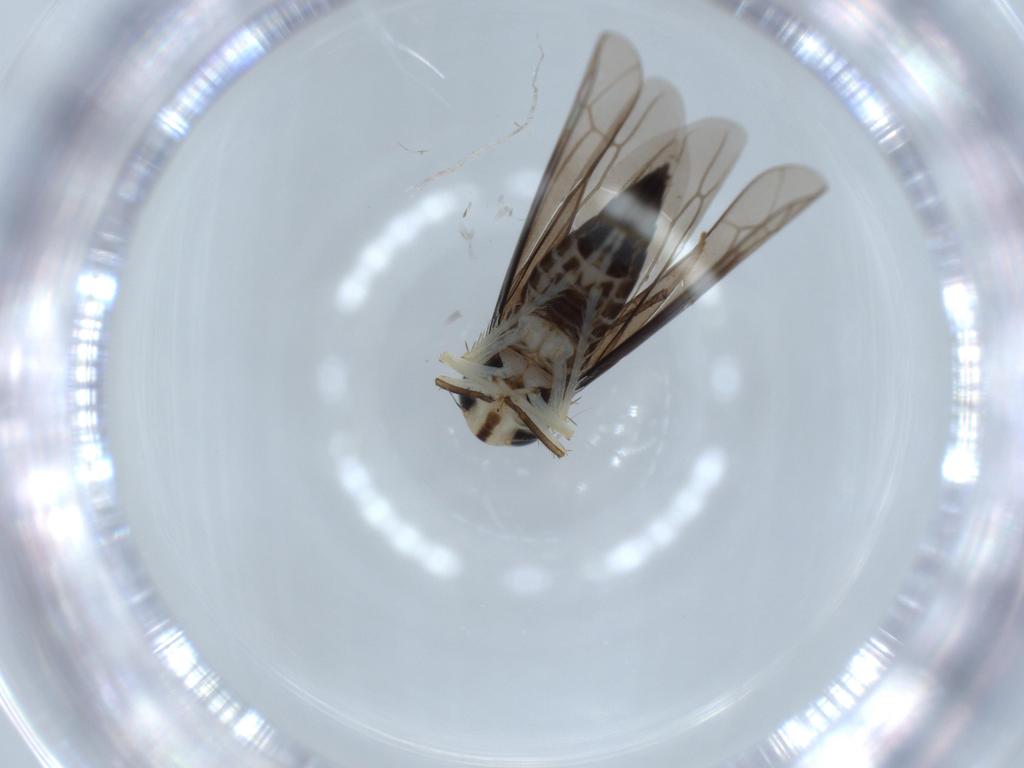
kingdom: Animalia
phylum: Arthropoda
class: Insecta
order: Hemiptera
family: Cicadellidae
